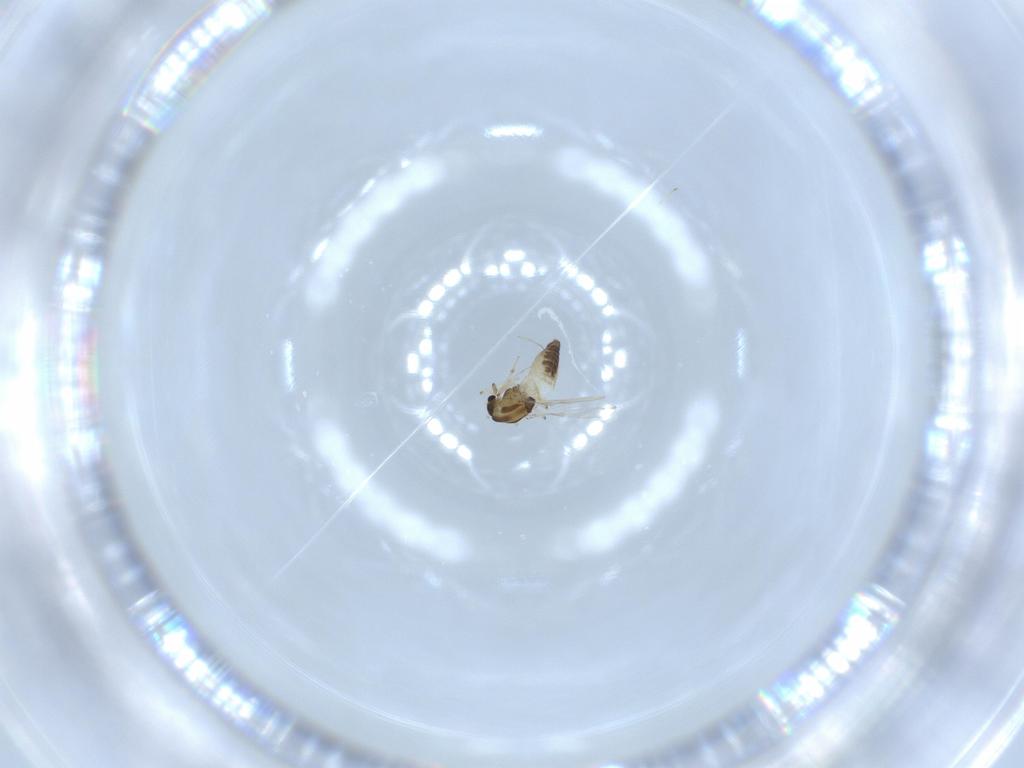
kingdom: Animalia
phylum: Arthropoda
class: Insecta
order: Diptera
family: Chironomidae
